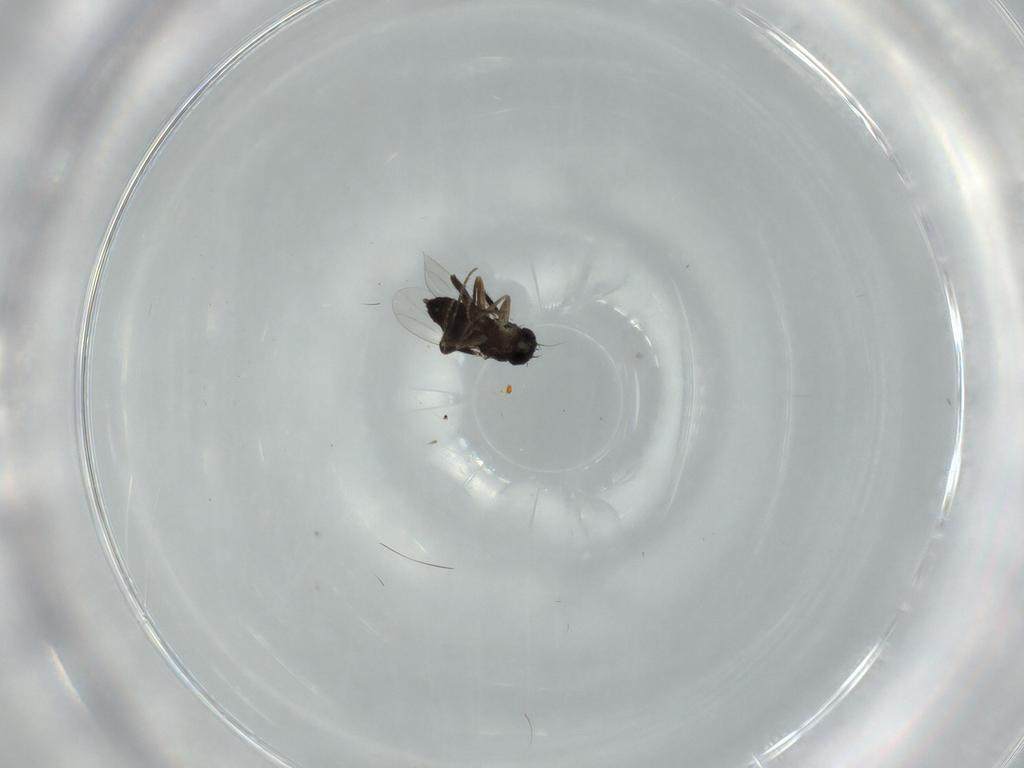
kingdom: Animalia
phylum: Arthropoda
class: Insecta
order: Diptera
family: Phoridae
